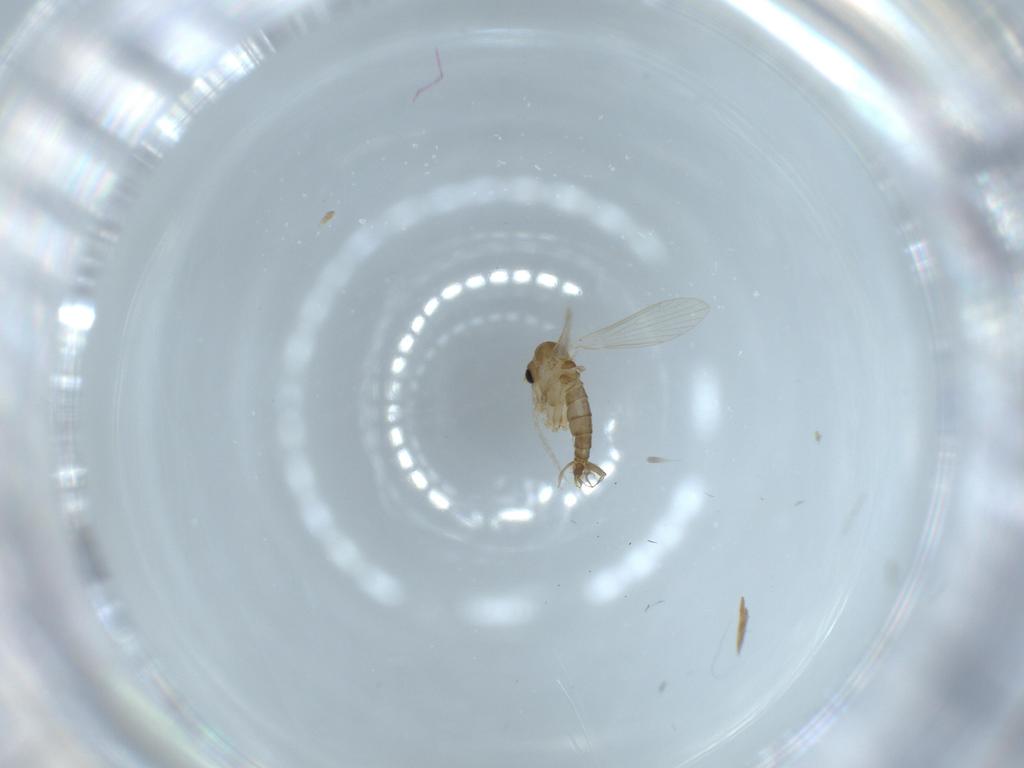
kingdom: Animalia
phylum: Arthropoda
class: Insecta
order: Diptera
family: Psychodidae
